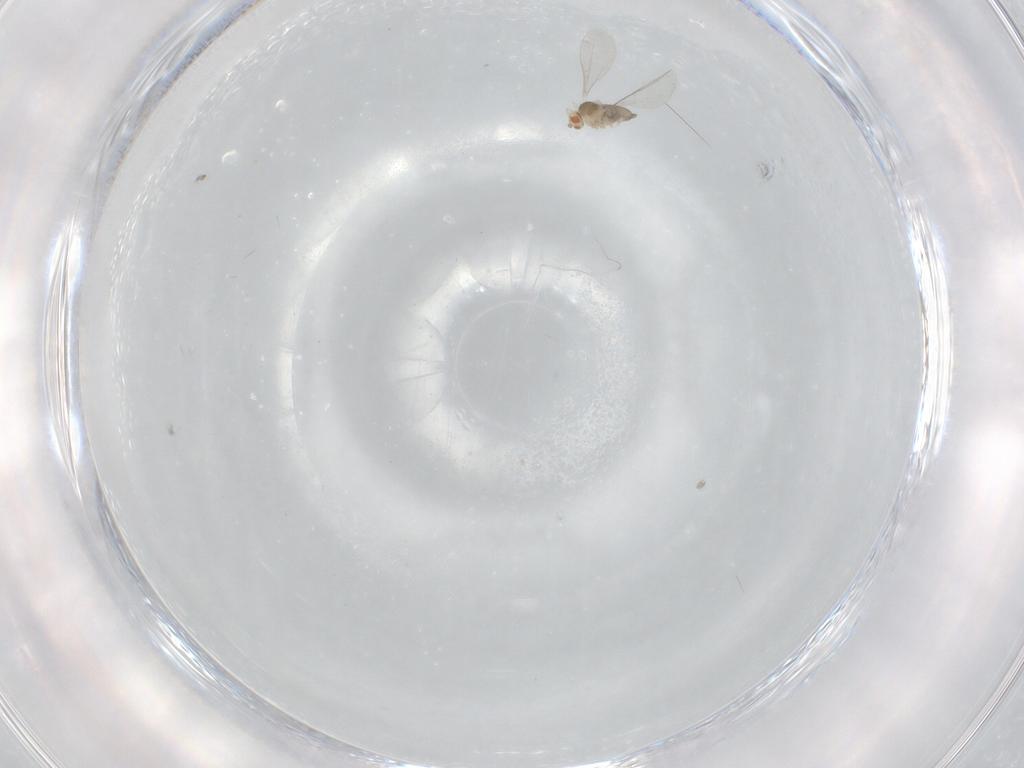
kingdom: Animalia
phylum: Arthropoda
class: Insecta
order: Diptera
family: Cecidomyiidae
